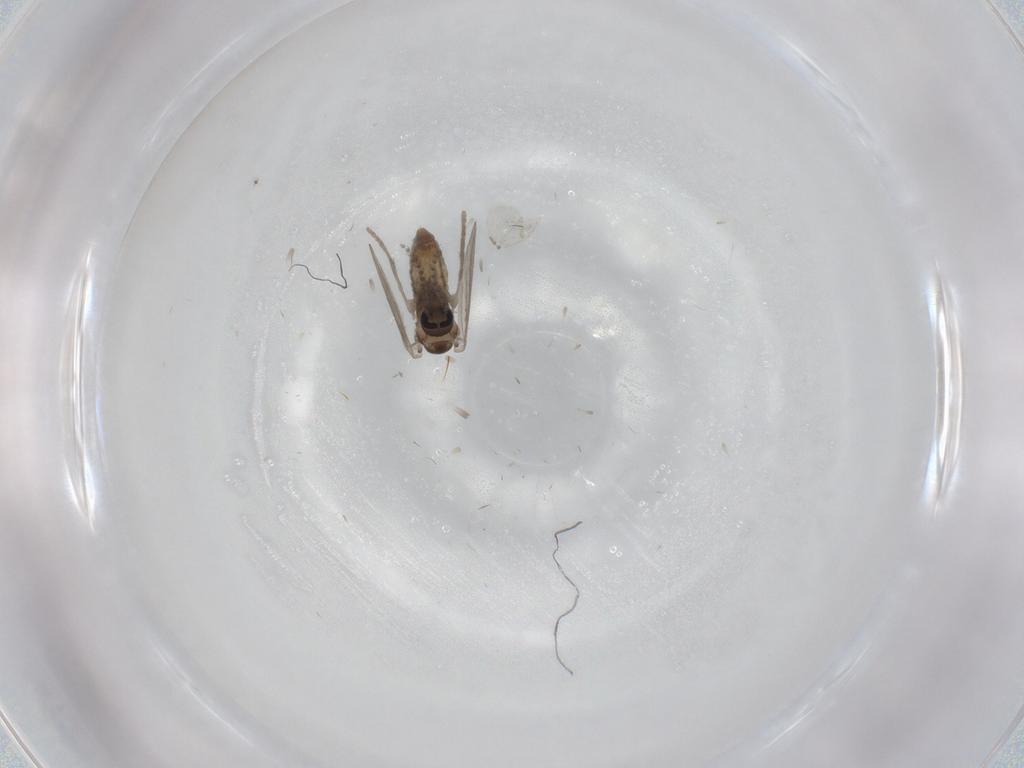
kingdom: Animalia
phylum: Arthropoda
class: Insecta
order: Diptera
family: Psychodidae
